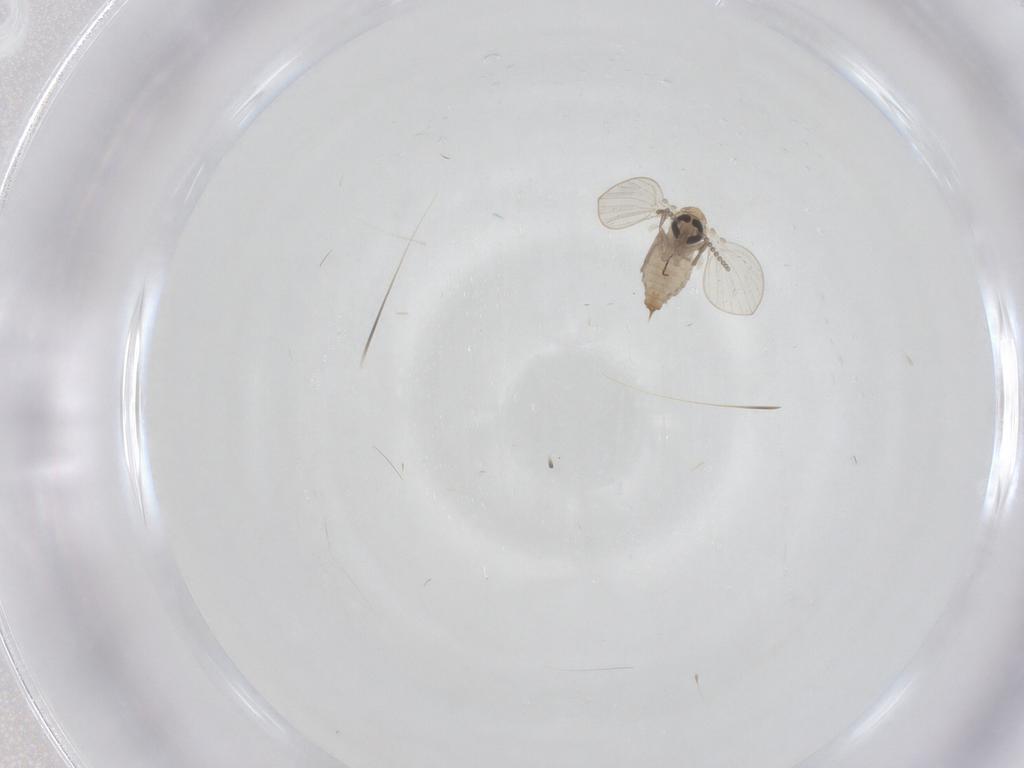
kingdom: Animalia
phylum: Arthropoda
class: Insecta
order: Diptera
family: Psychodidae
